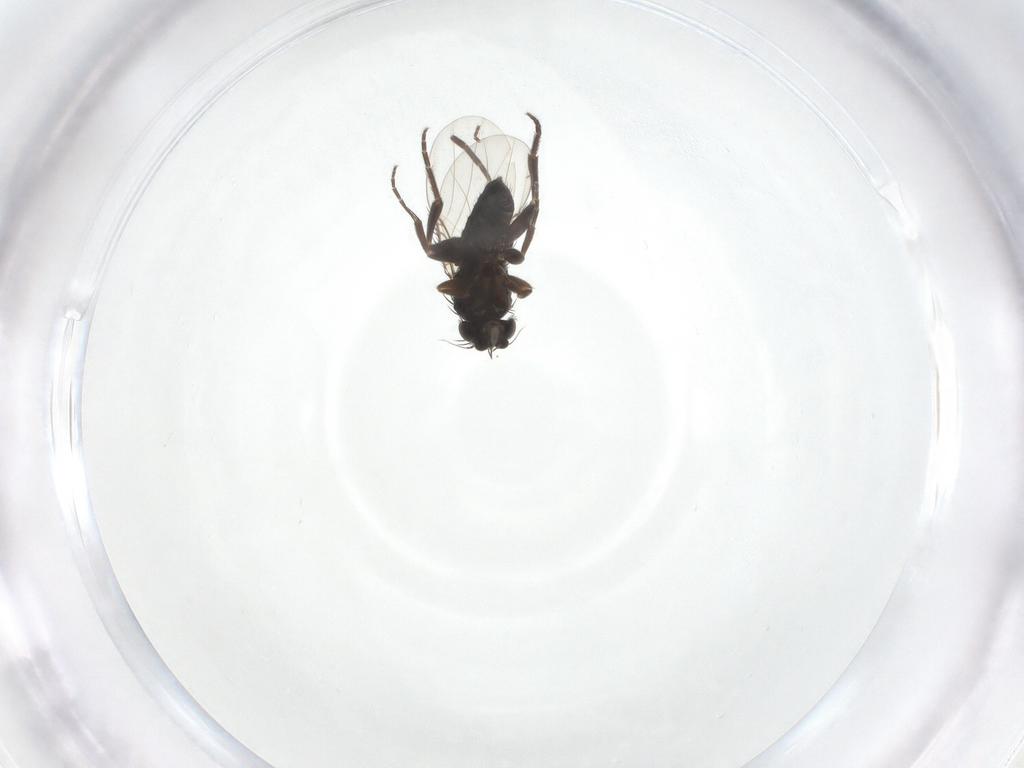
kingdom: Animalia
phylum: Arthropoda
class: Insecta
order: Diptera
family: Phoridae
